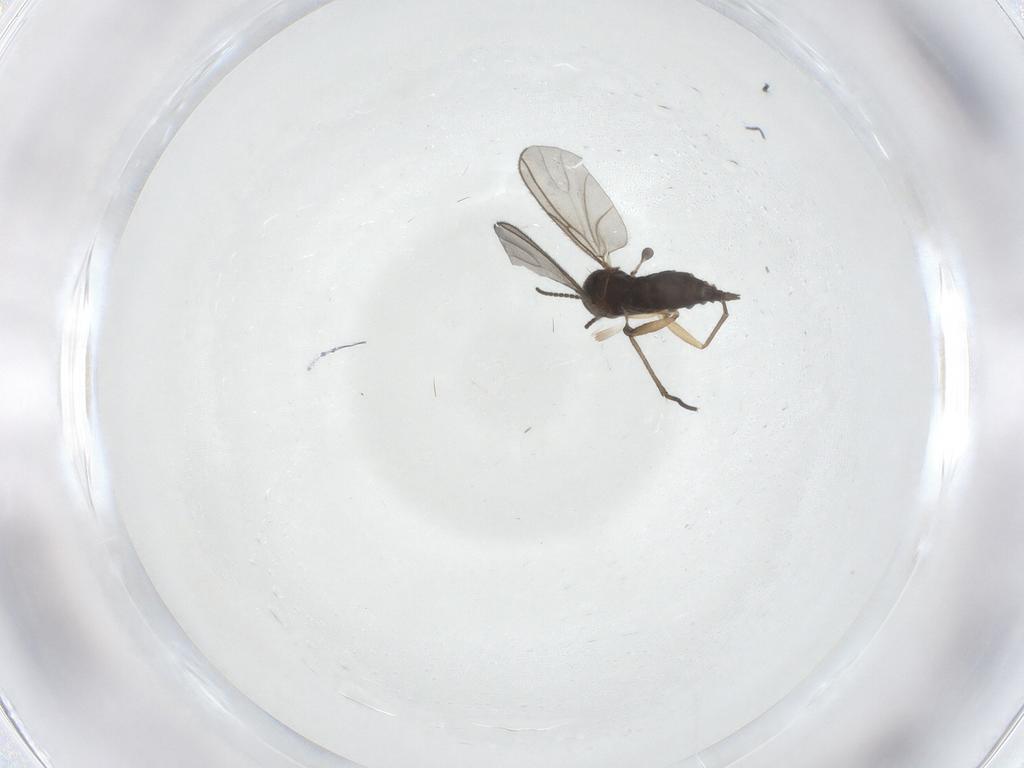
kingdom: Animalia
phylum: Arthropoda
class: Insecta
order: Diptera
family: Sciaridae
